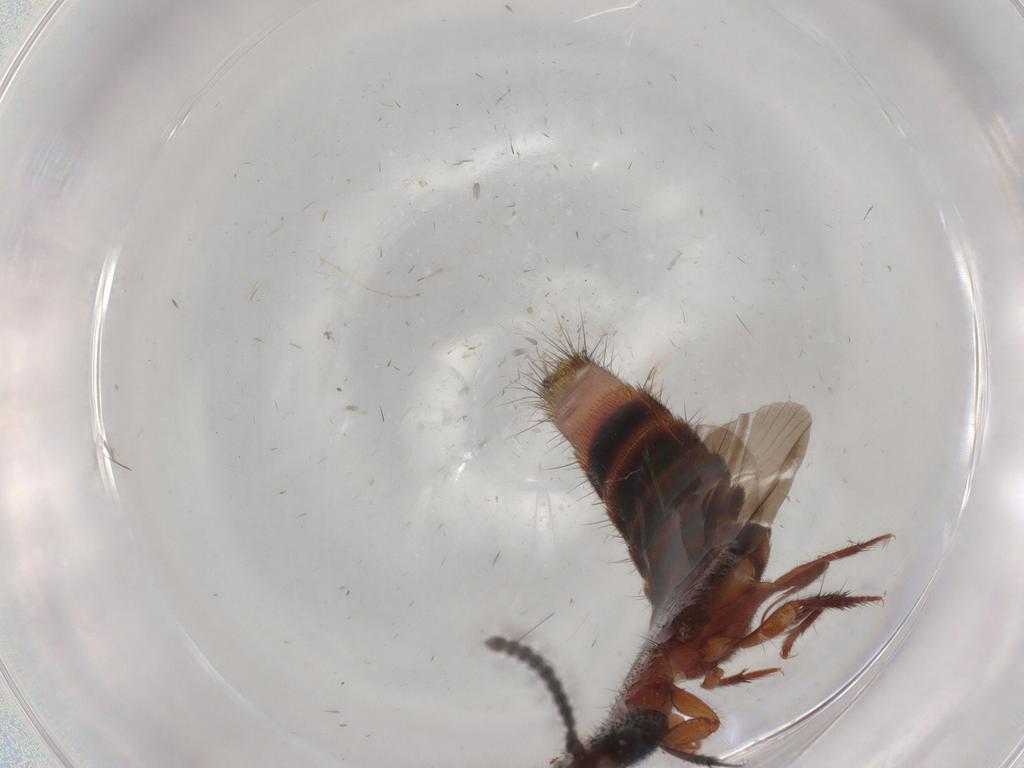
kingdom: Animalia
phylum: Arthropoda
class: Insecta
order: Coleoptera
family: Staphylinidae
